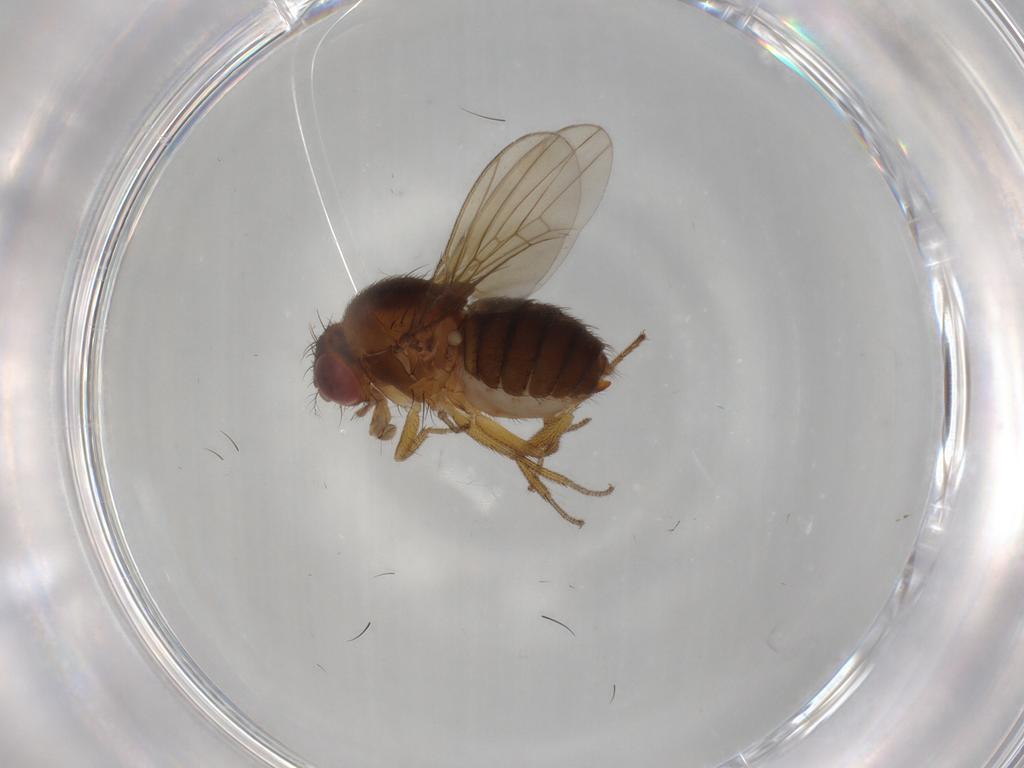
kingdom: Animalia
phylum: Arthropoda
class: Insecta
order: Diptera
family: Drosophilidae
